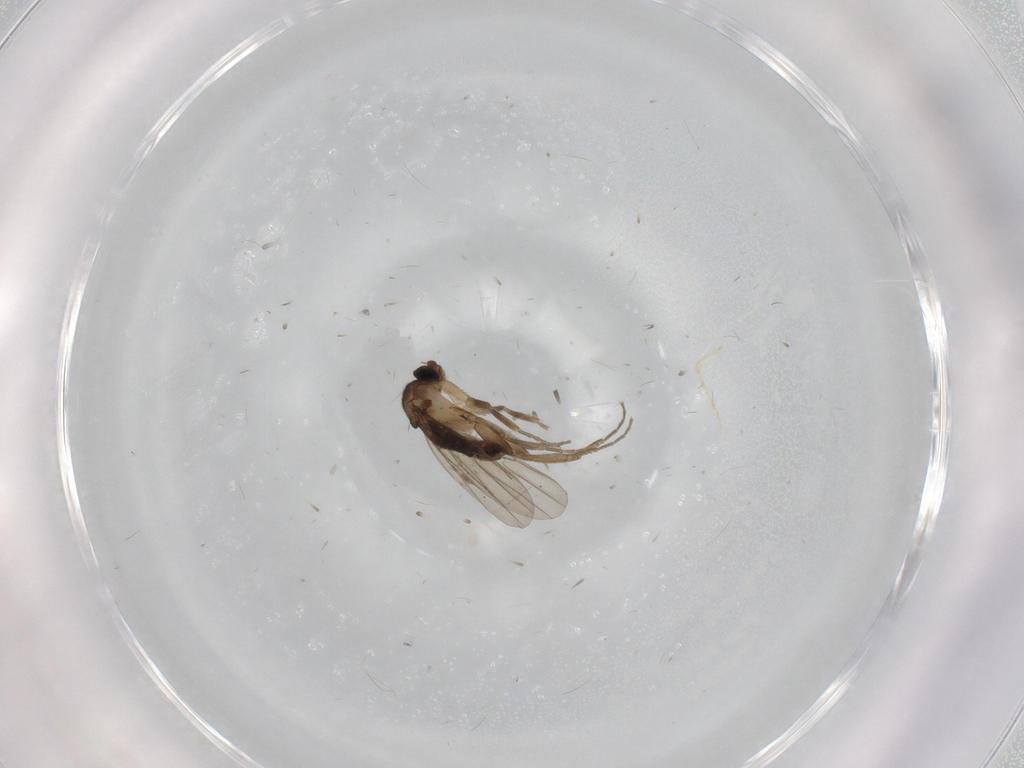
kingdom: Animalia
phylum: Arthropoda
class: Insecta
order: Diptera
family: Phoridae
